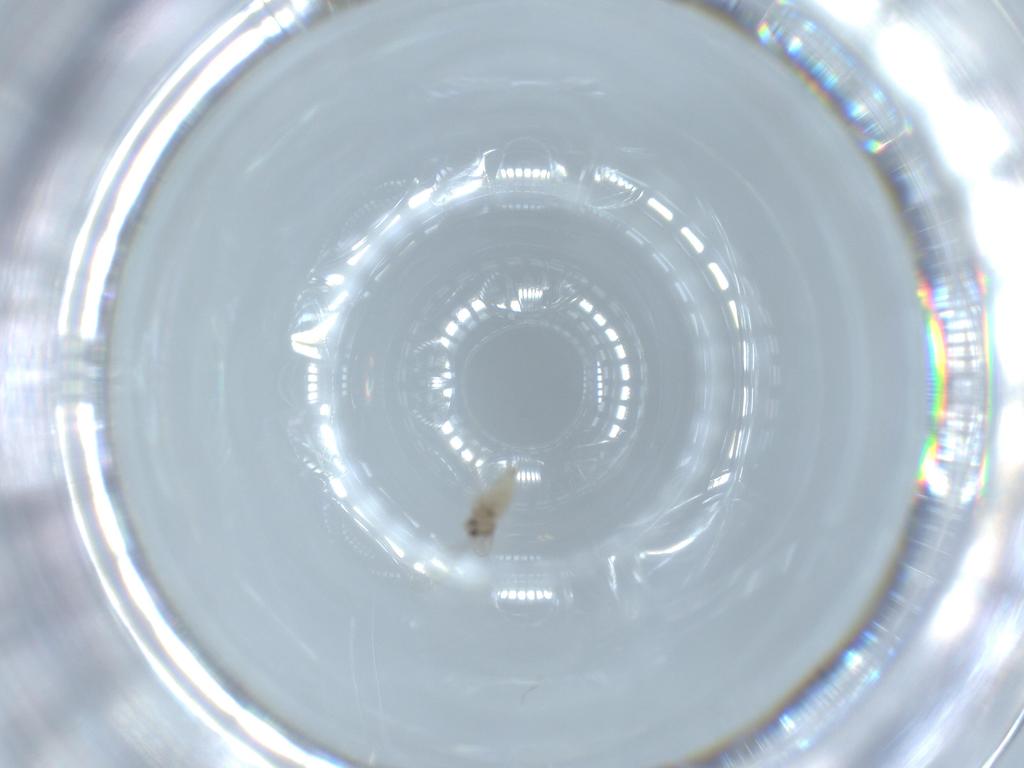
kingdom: Animalia
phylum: Arthropoda
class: Insecta
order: Diptera
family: Cecidomyiidae
